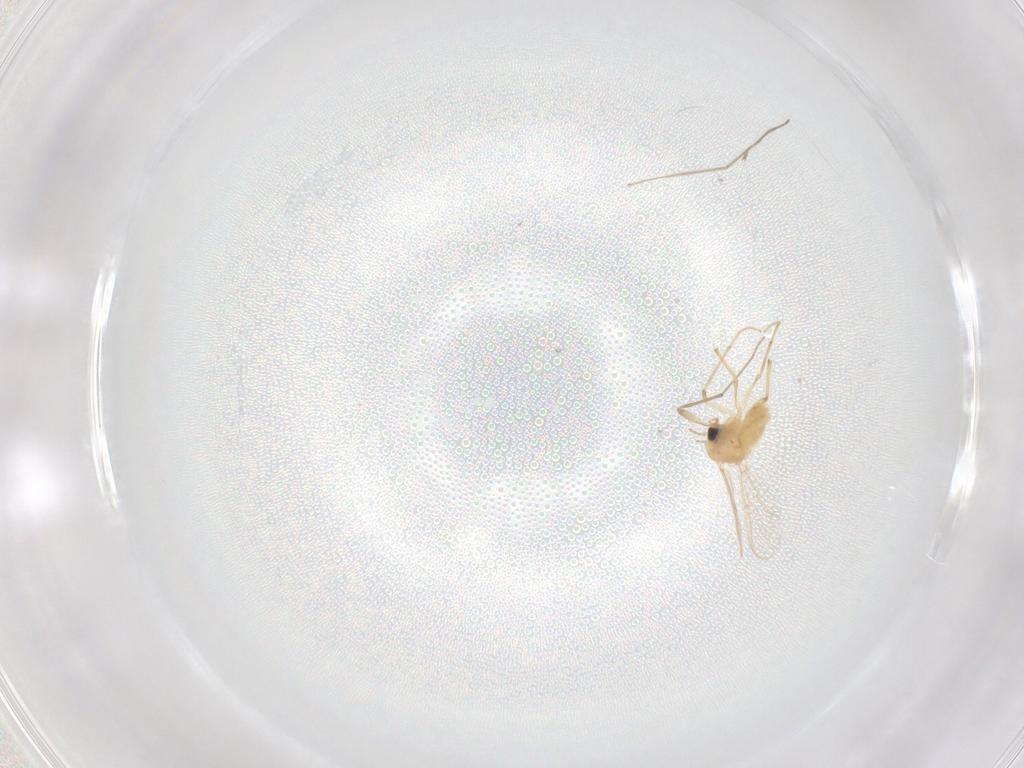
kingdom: Animalia
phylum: Arthropoda
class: Insecta
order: Diptera
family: Chironomidae
